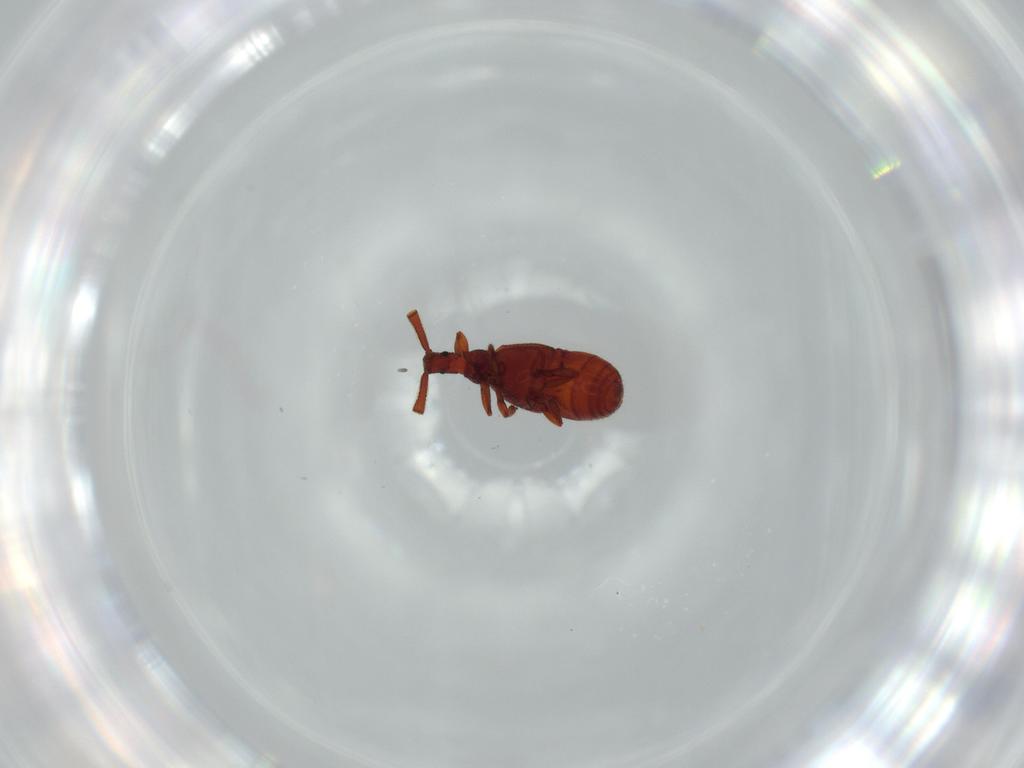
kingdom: Animalia
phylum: Arthropoda
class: Insecta
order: Coleoptera
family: Staphylinidae
